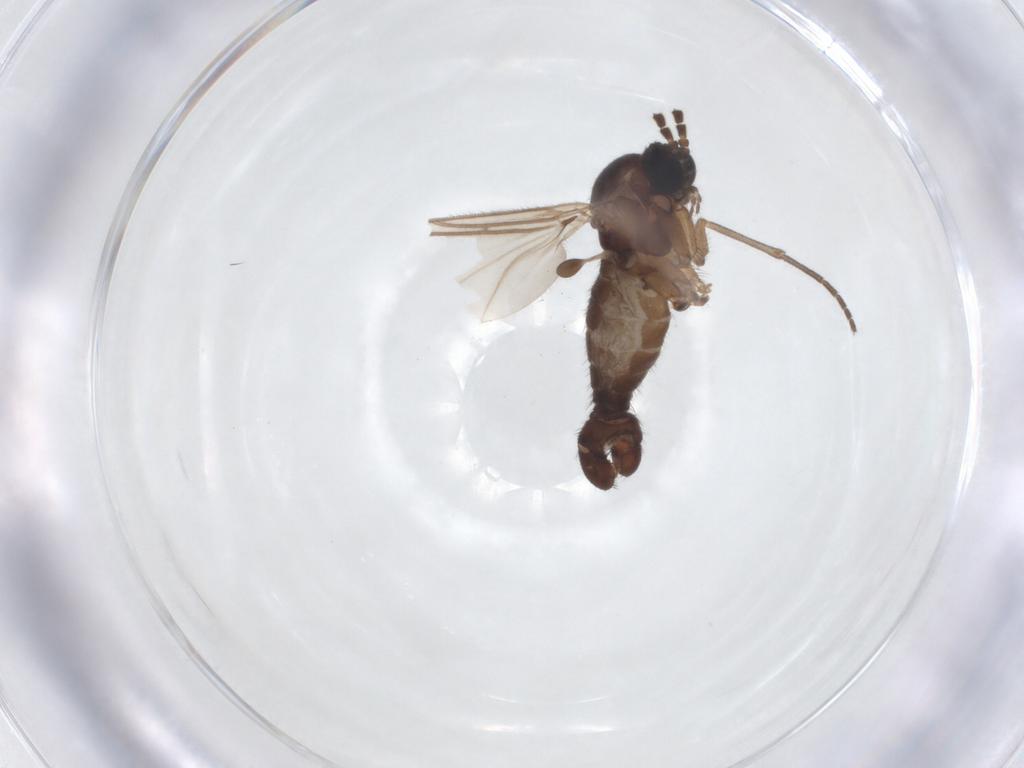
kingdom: Animalia
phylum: Arthropoda
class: Insecta
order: Diptera
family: Sciaridae
